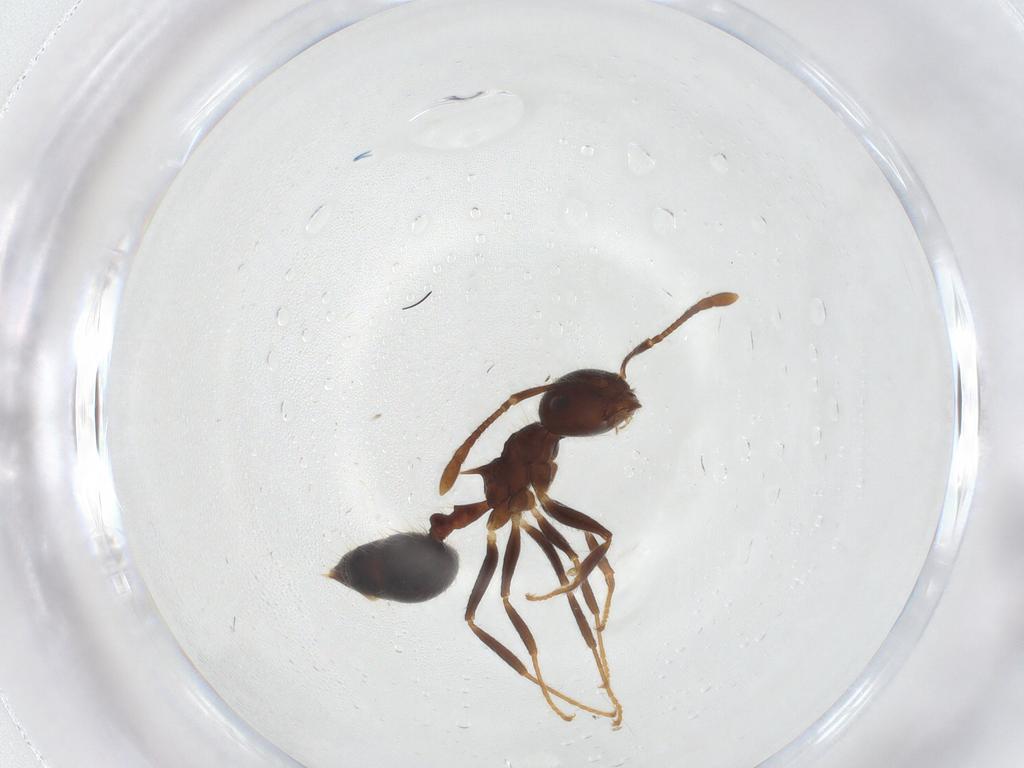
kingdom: Animalia
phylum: Arthropoda
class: Insecta
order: Hymenoptera
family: Formicidae
